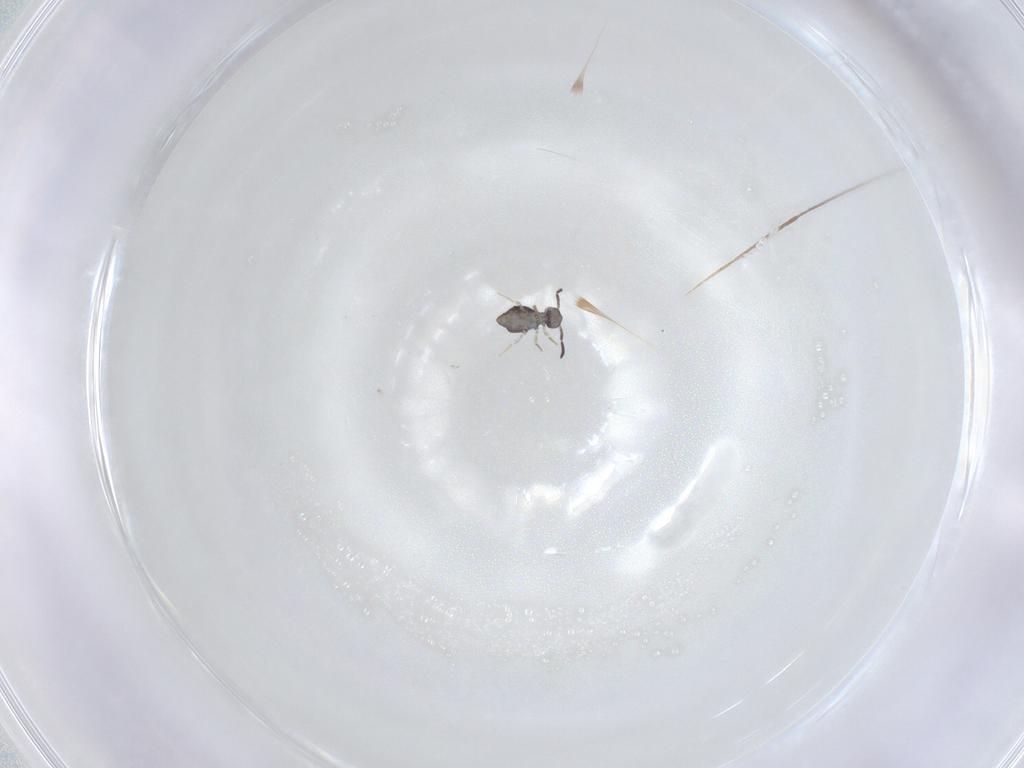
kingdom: Animalia
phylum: Arthropoda
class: Collembola
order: Symphypleona
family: Katiannidae
